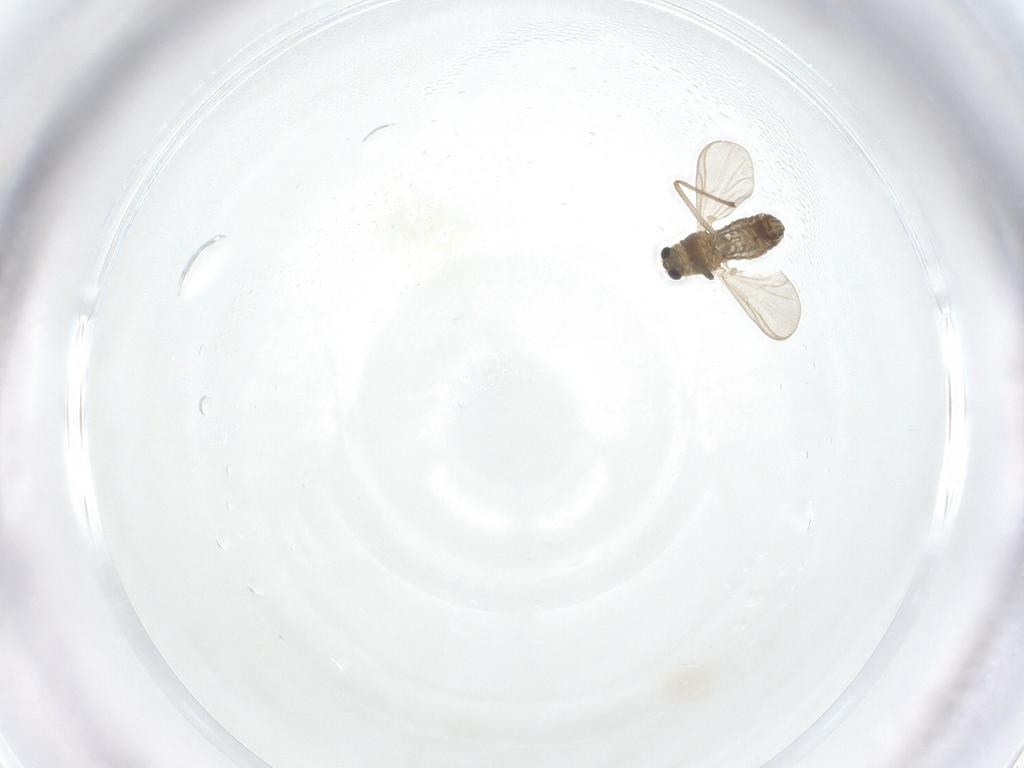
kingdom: Animalia
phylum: Arthropoda
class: Insecta
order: Diptera
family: Chironomidae
